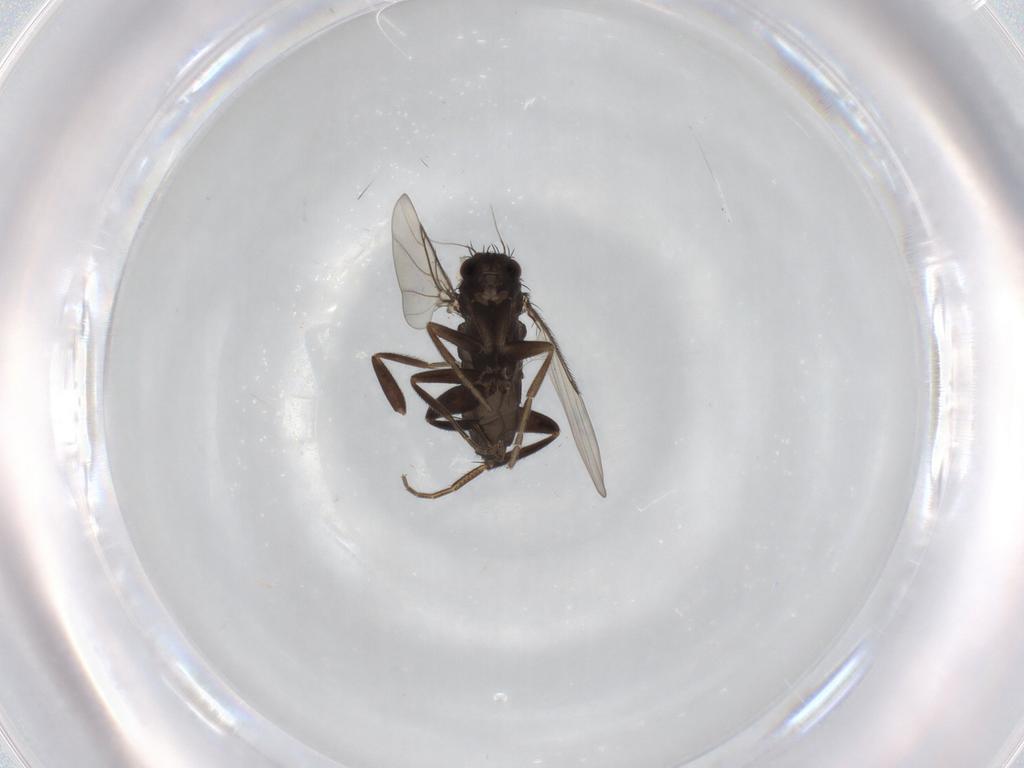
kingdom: Animalia
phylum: Arthropoda
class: Insecta
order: Diptera
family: Phoridae
